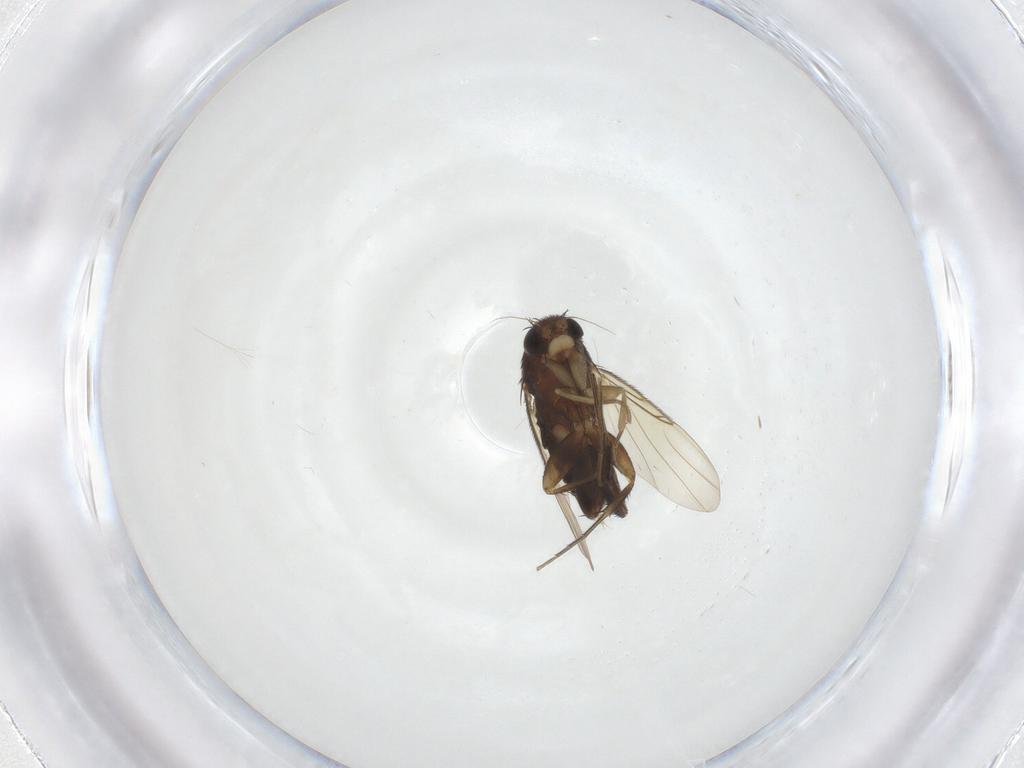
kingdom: Animalia
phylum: Arthropoda
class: Insecta
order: Diptera
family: Phoridae
